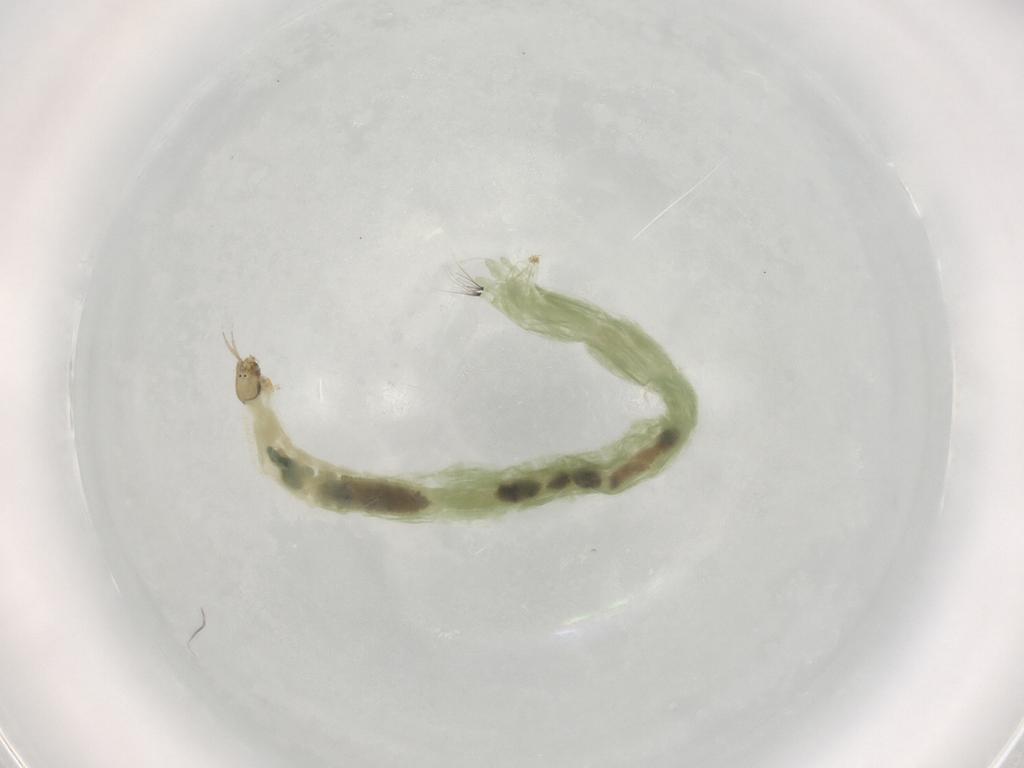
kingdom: Animalia
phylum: Arthropoda
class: Insecta
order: Diptera
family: Chironomidae
